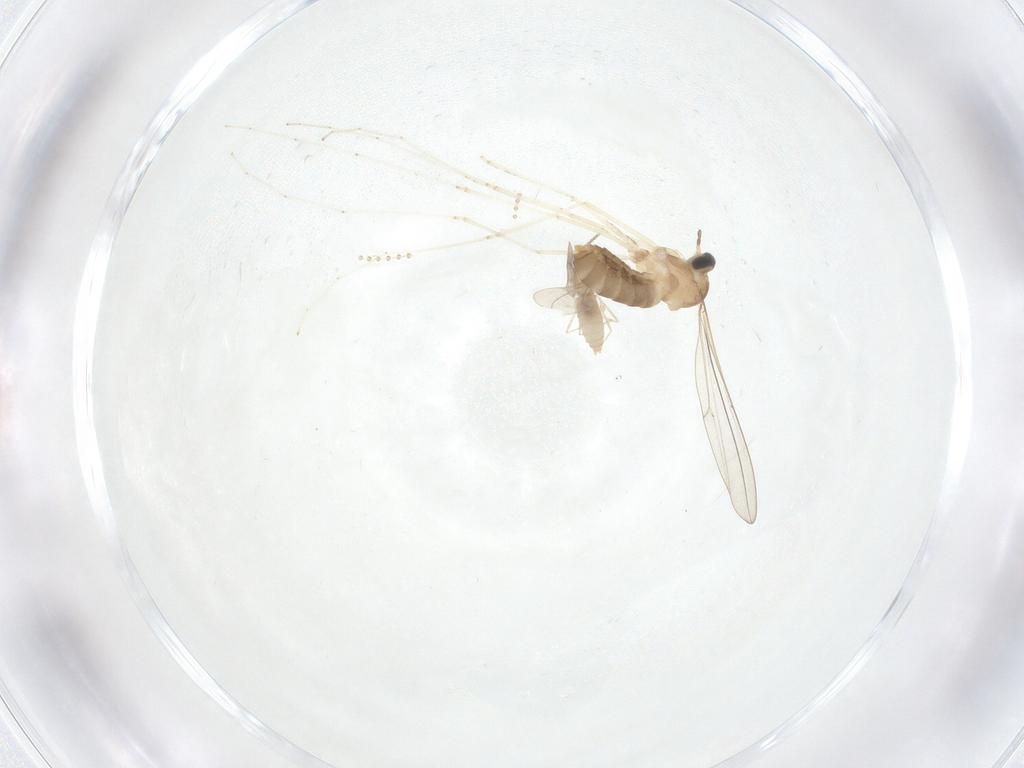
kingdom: Animalia
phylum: Arthropoda
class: Insecta
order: Diptera
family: Cecidomyiidae
